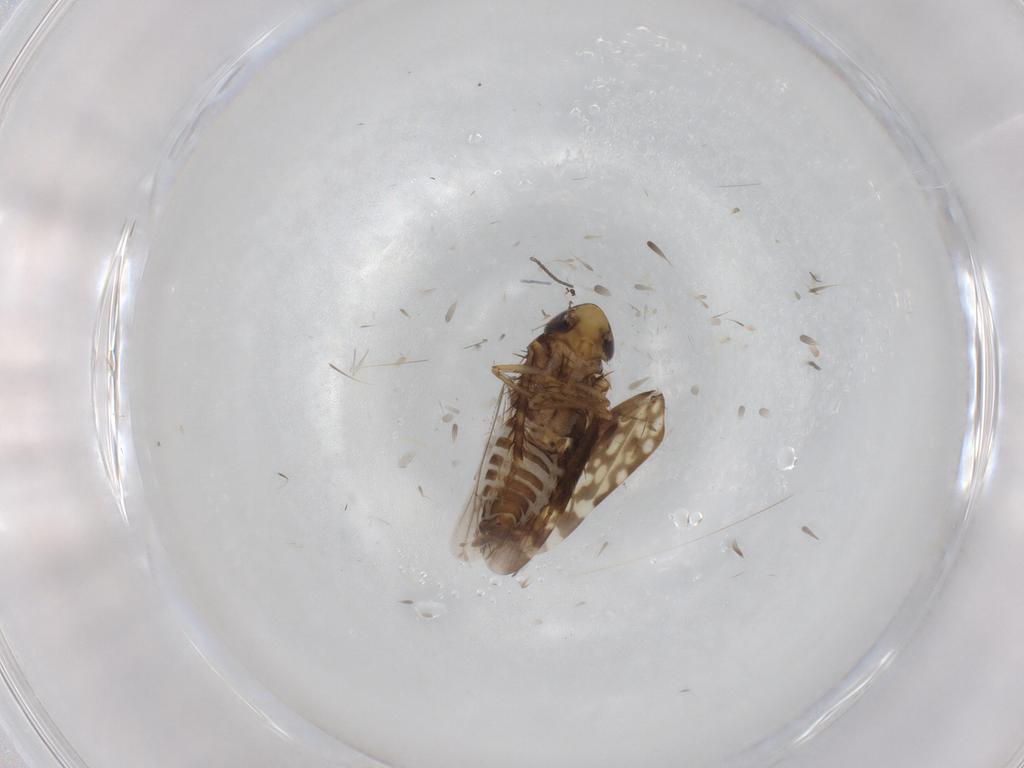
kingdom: Animalia
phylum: Arthropoda
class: Insecta
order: Hemiptera
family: Cicadellidae
